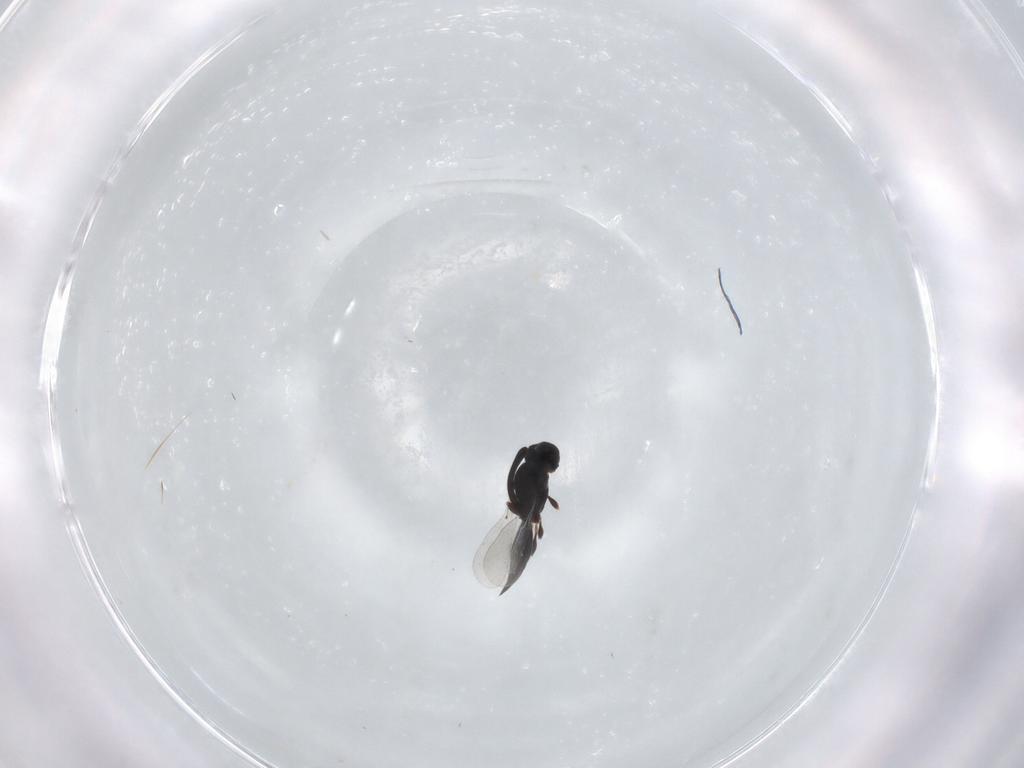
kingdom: Animalia
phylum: Arthropoda
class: Insecta
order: Hymenoptera
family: Platygastridae
